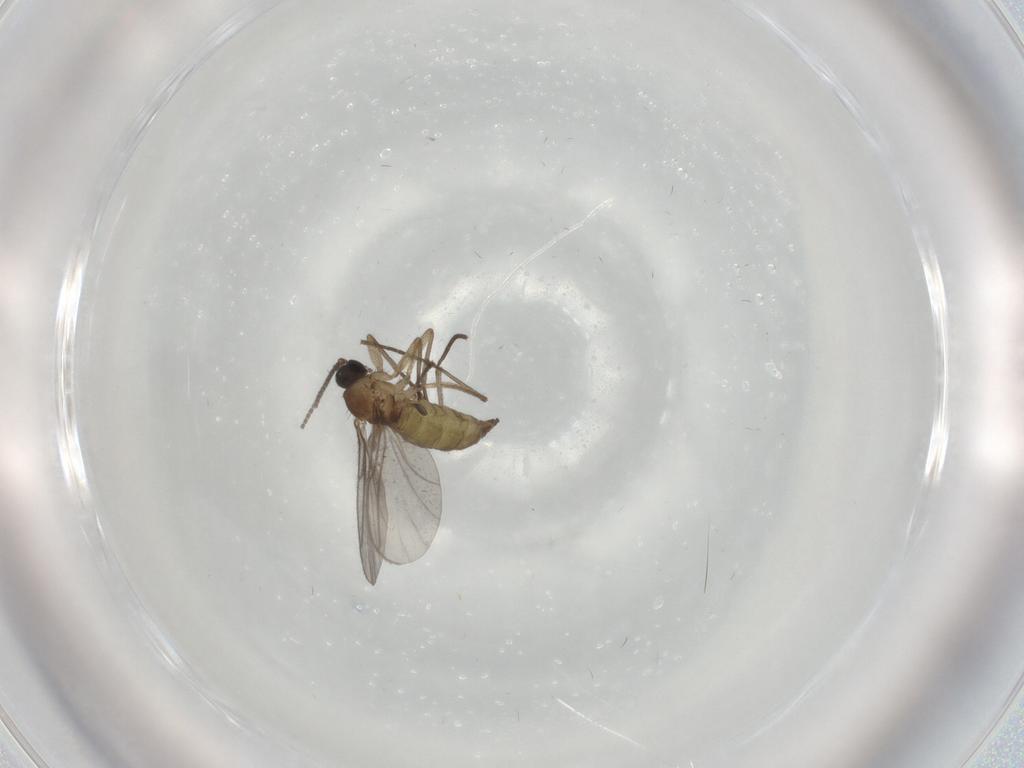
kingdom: Animalia
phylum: Arthropoda
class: Insecta
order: Diptera
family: Sciaridae
